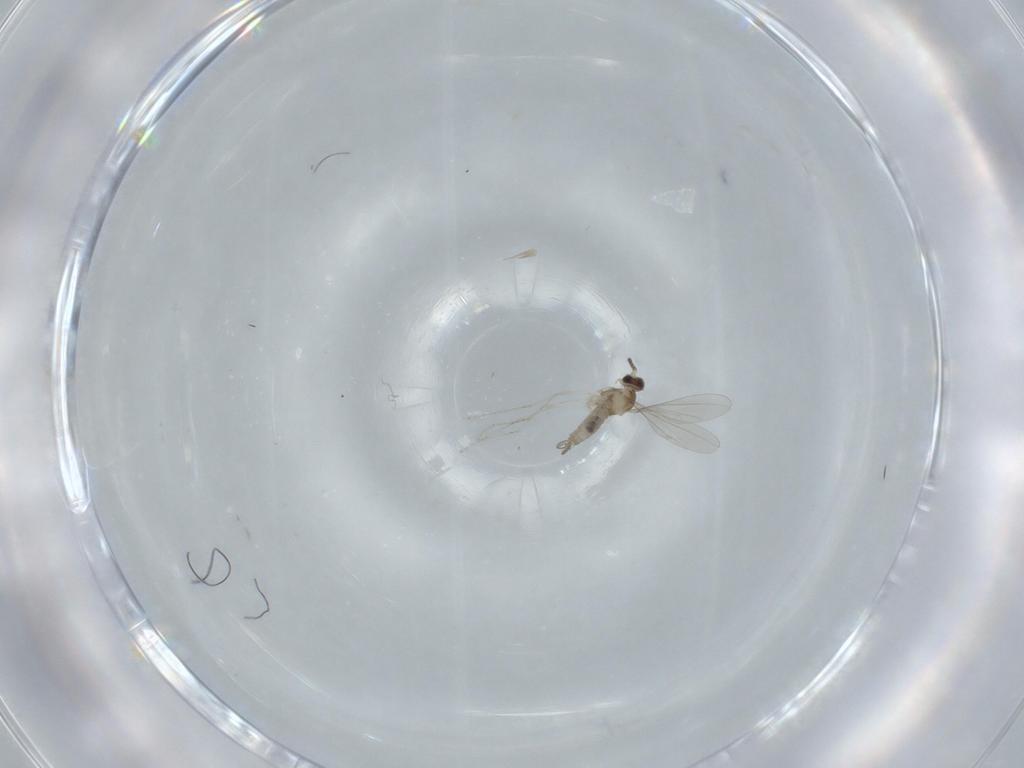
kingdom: Animalia
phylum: Arthropoda
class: Insecta
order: Diptera
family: Cecidomyiidae
